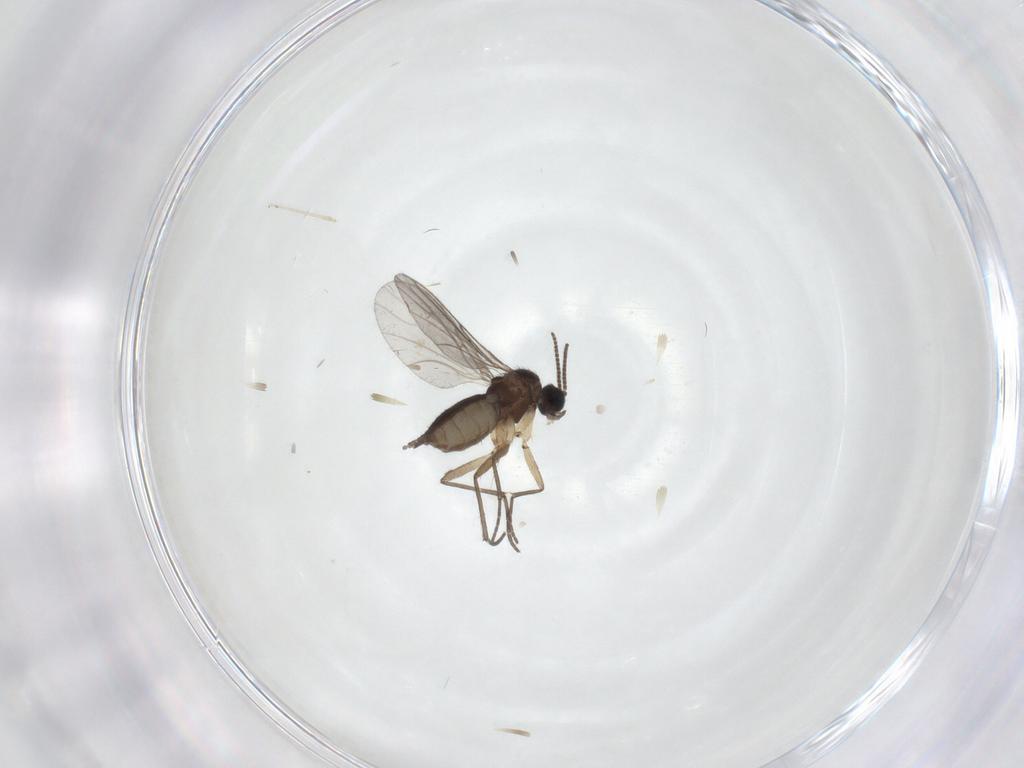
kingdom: Animalia
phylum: Arthropoda
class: Insecta
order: Diptera
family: Sciaridae
